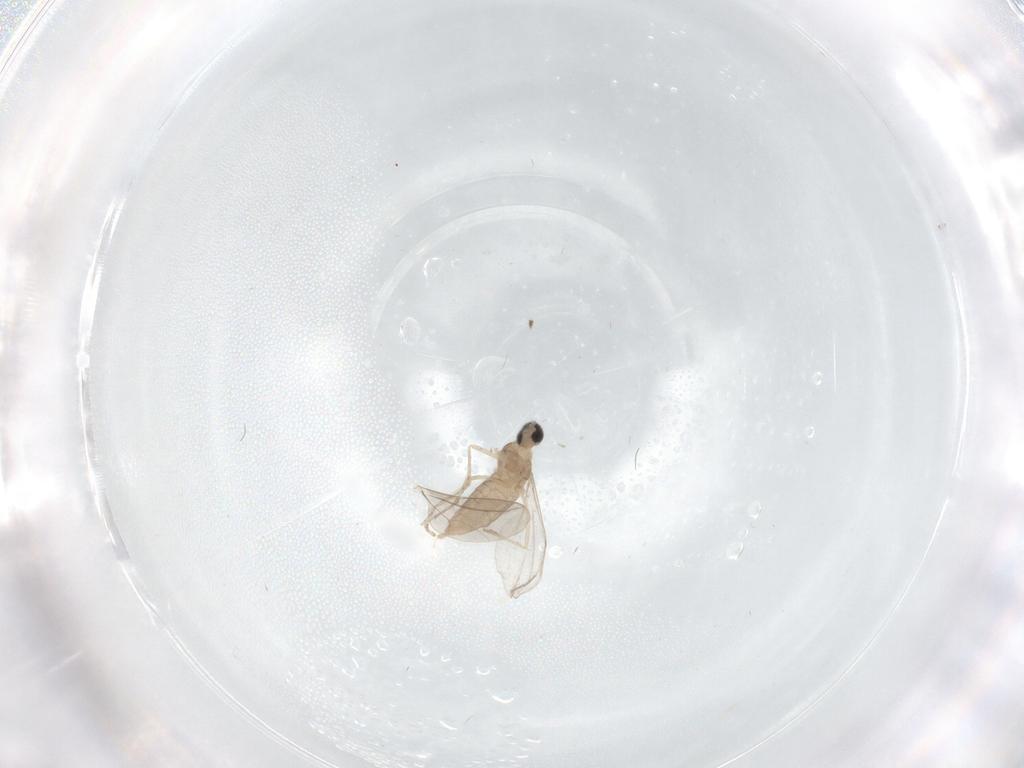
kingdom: Animalia
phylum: Arthropoda
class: Insecta
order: Diptera
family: Cecidomyiidae
